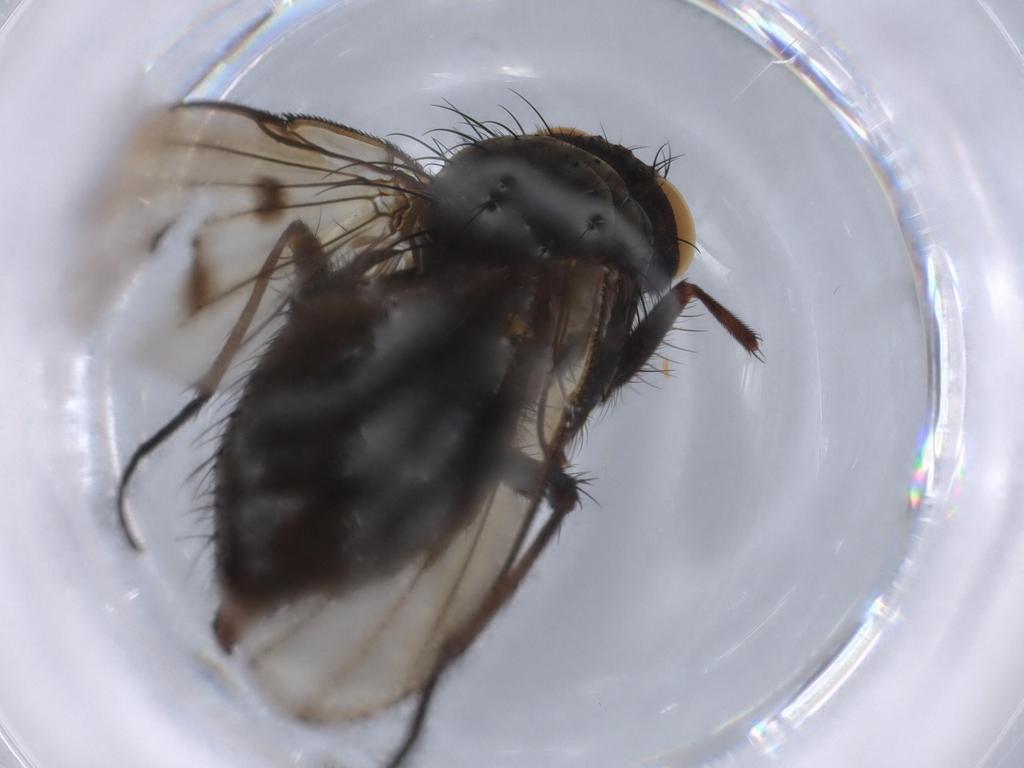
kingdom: Animalia
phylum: Arthropoda
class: Insecta
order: Diptera
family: Muscidae
